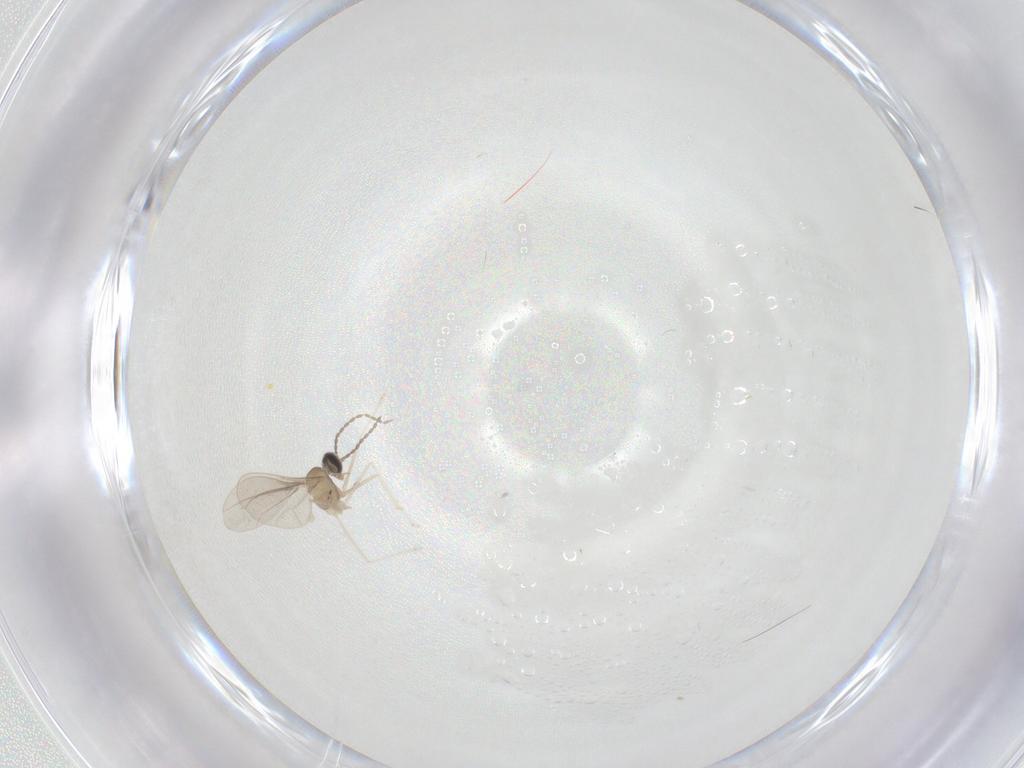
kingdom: Animalia
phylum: Arthropoda
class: Insecta
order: Diptera
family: Cecidomyiidae
